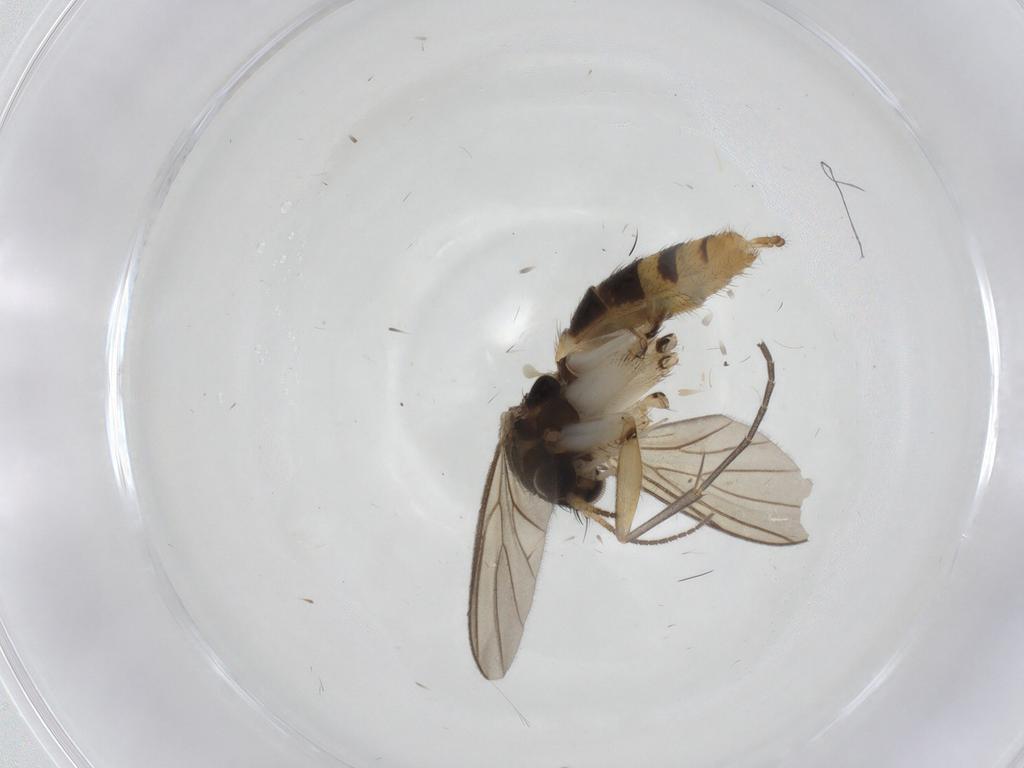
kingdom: Animalia
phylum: Arthropoda
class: Insecta
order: Diptera
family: Mycetophilidae
